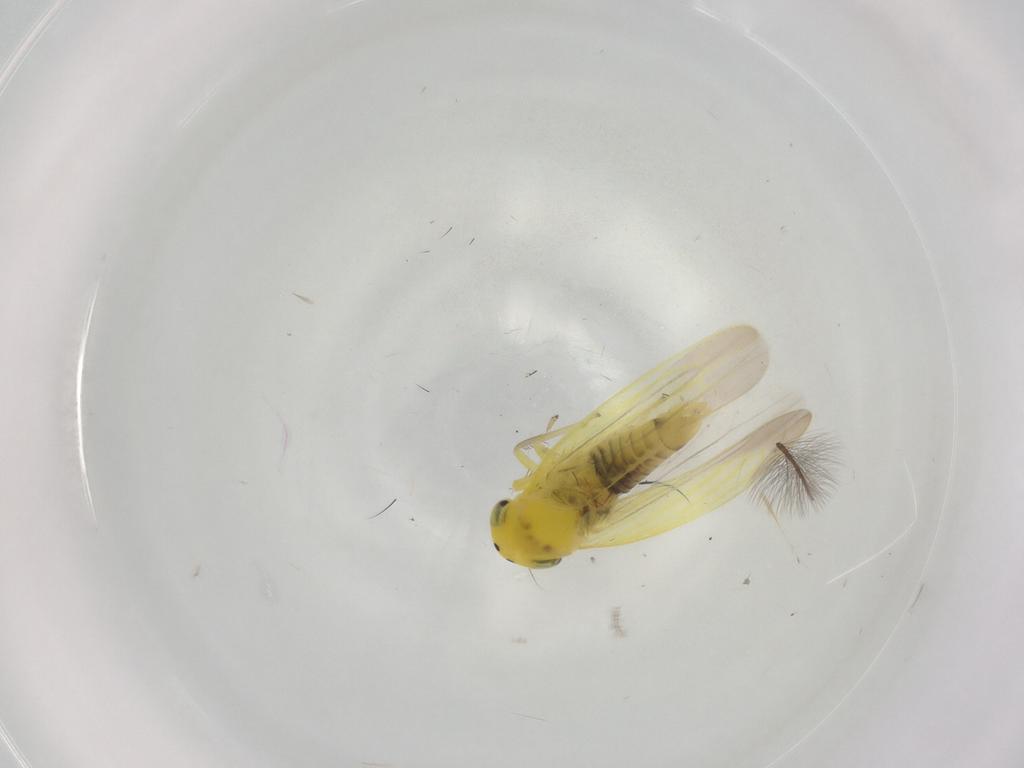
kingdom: Animalia
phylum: Arthropoda
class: Insecta
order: Hemiptera
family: Cicadellidae
